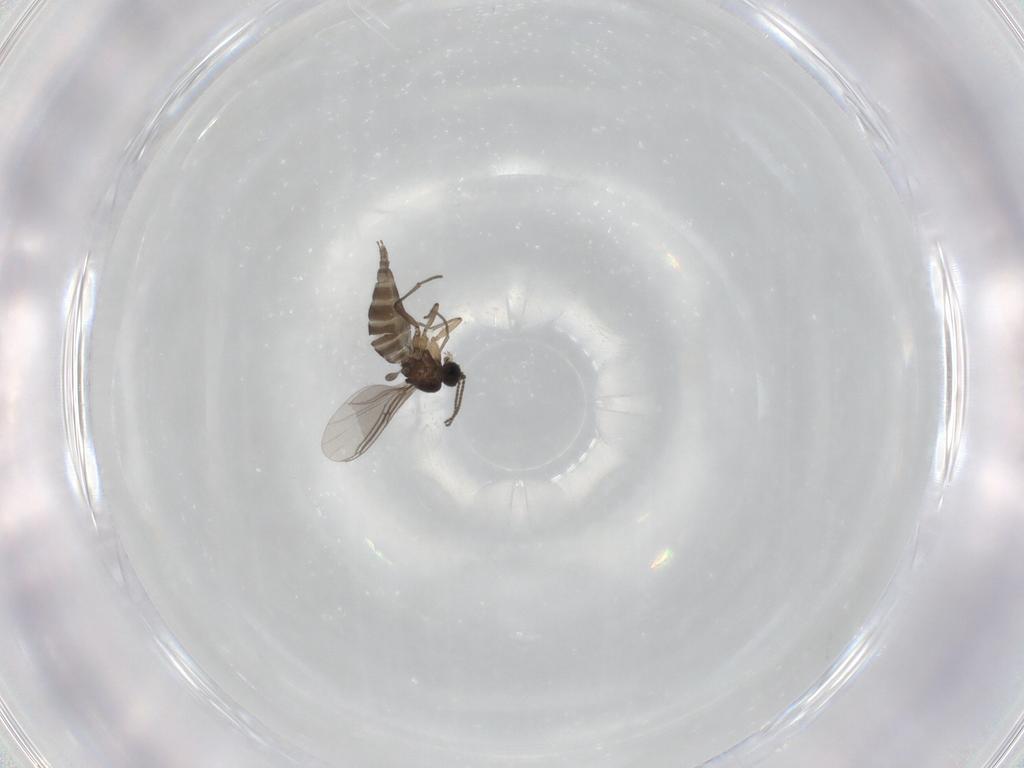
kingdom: Animalia
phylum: Arthropoda
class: Insecta
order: Diptera
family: Sciaridae
